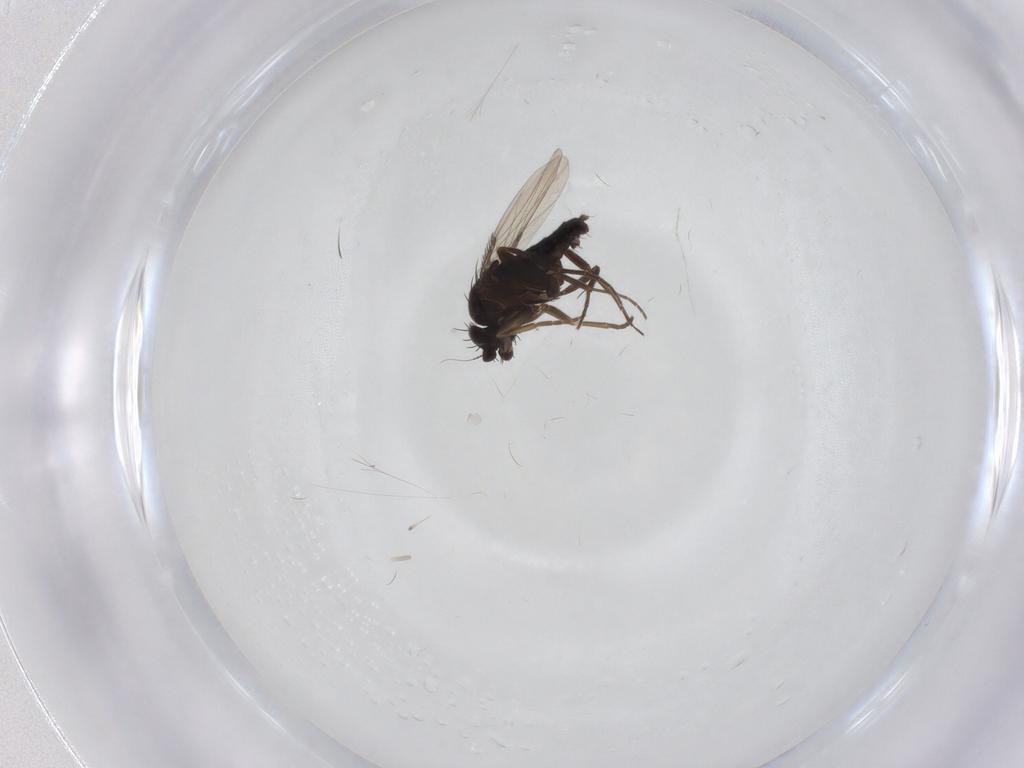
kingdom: Animalia
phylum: Arthropoda
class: Insecta
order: Diptera
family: Phoridae
